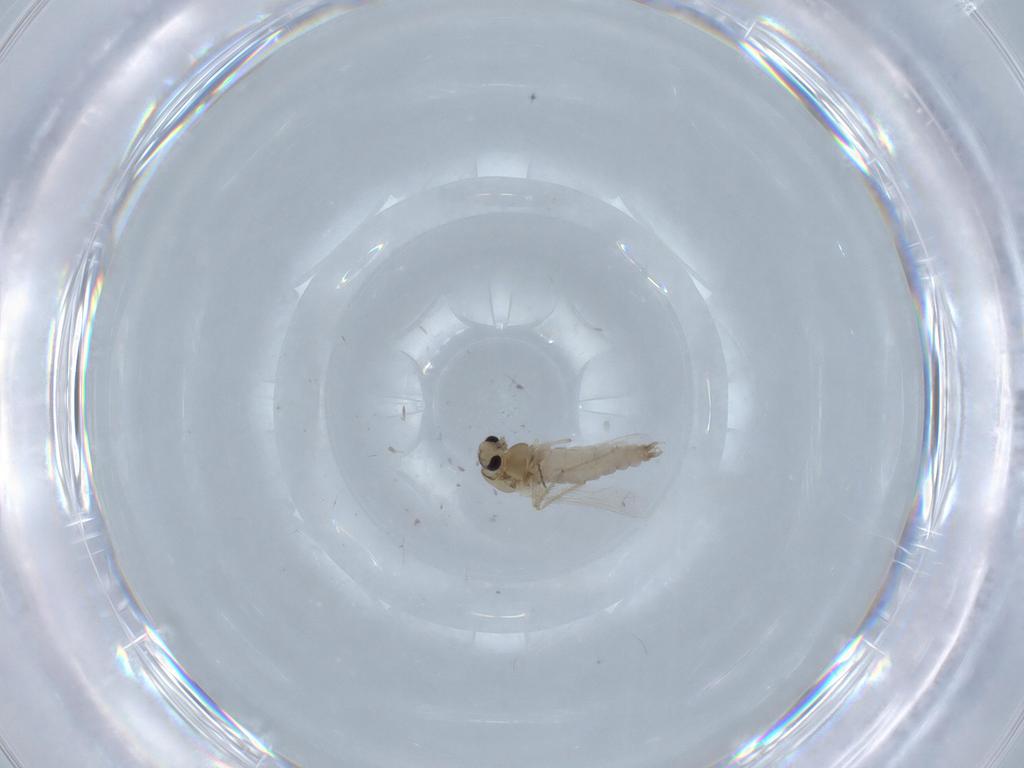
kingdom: Animalia
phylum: Arthropoda
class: Insecta
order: Diptera
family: Chironomidae
